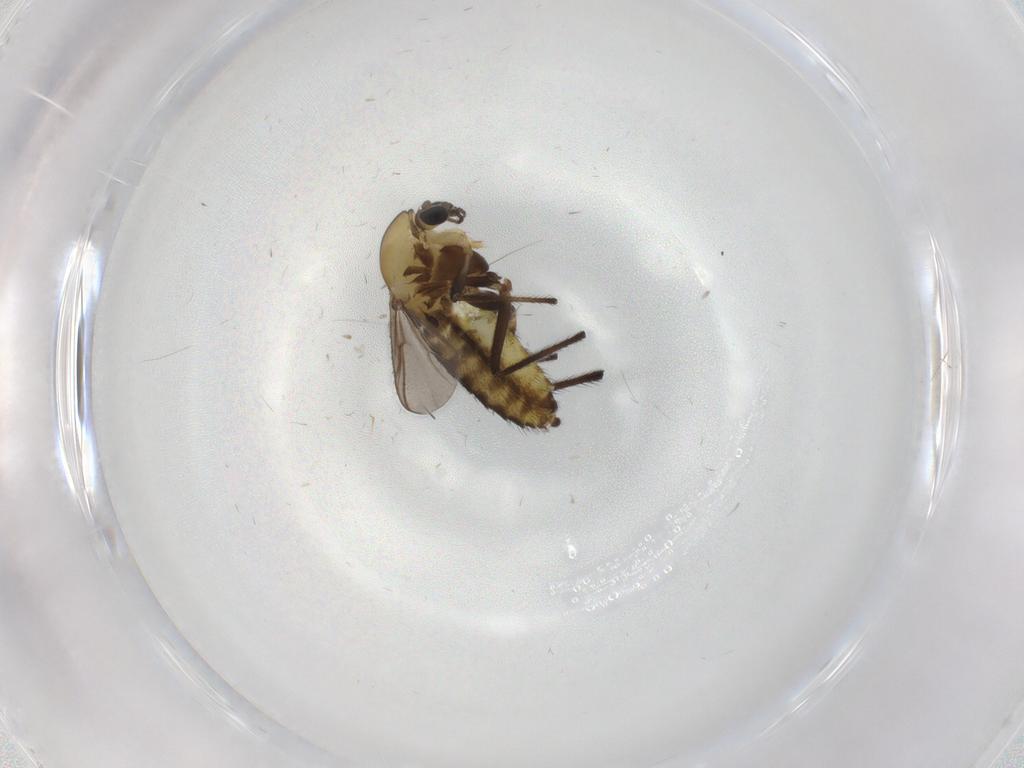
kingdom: Animalia
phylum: Arthropoda
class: Insecta
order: Diptera
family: Chironomidae
